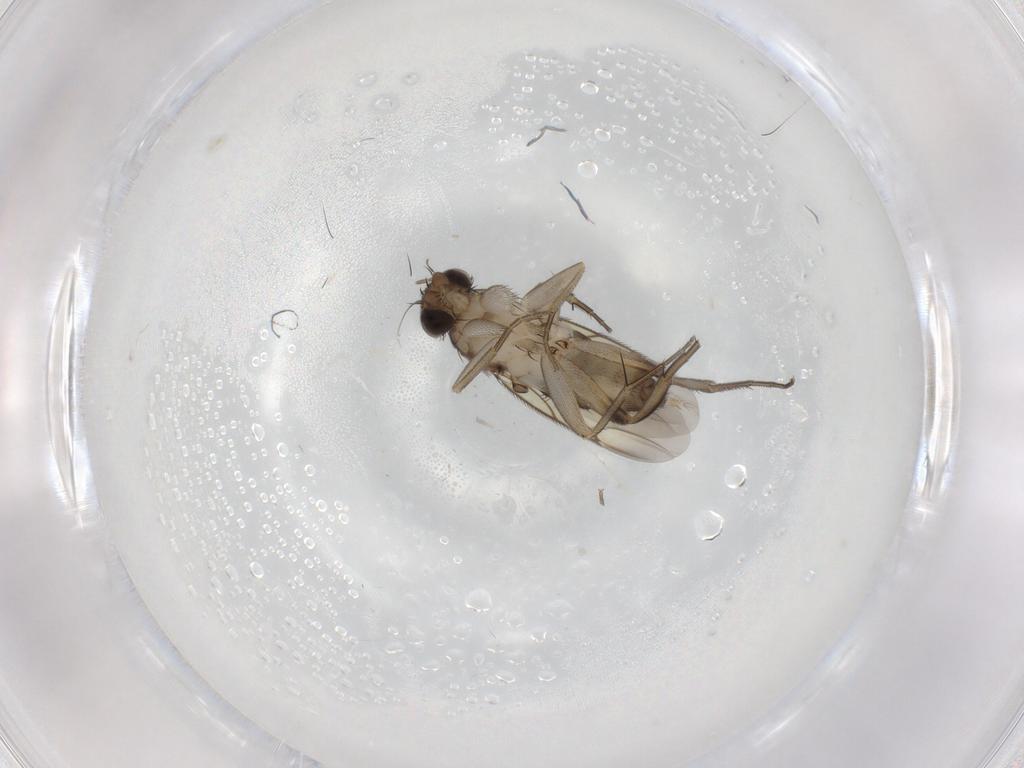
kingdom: Animalia
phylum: Arthropoda
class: Insecta
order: Diptera
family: Phoridae
